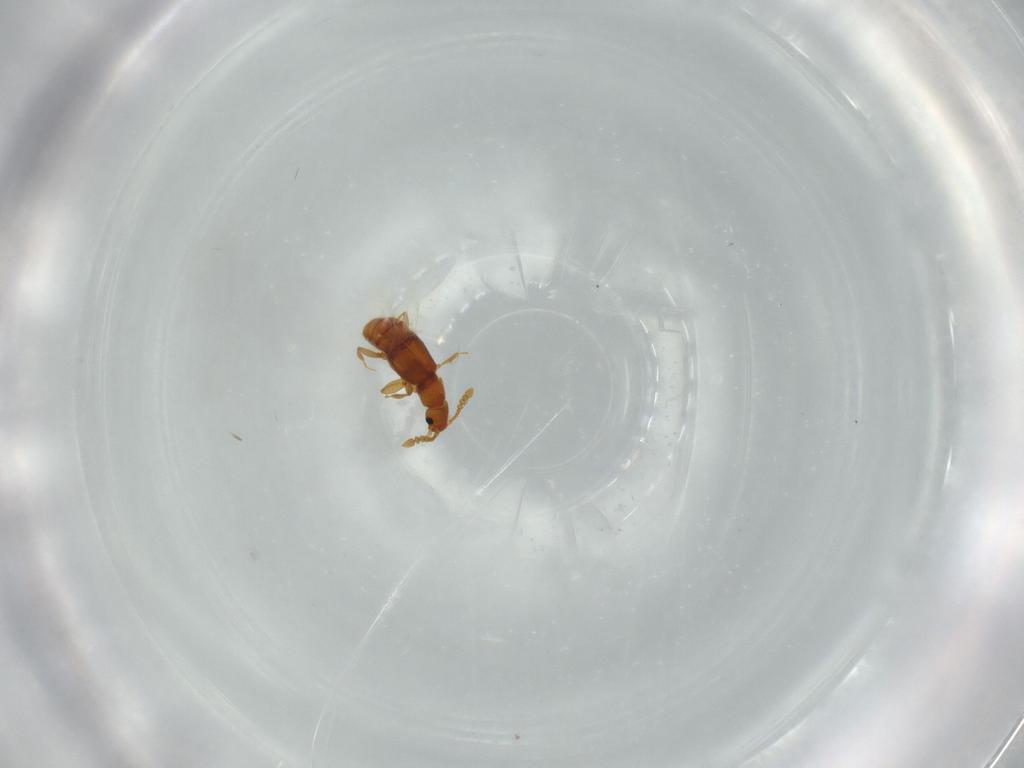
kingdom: Animalia
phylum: Arthropoda
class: Insecta
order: Coleoptera
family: Staphylinidae
